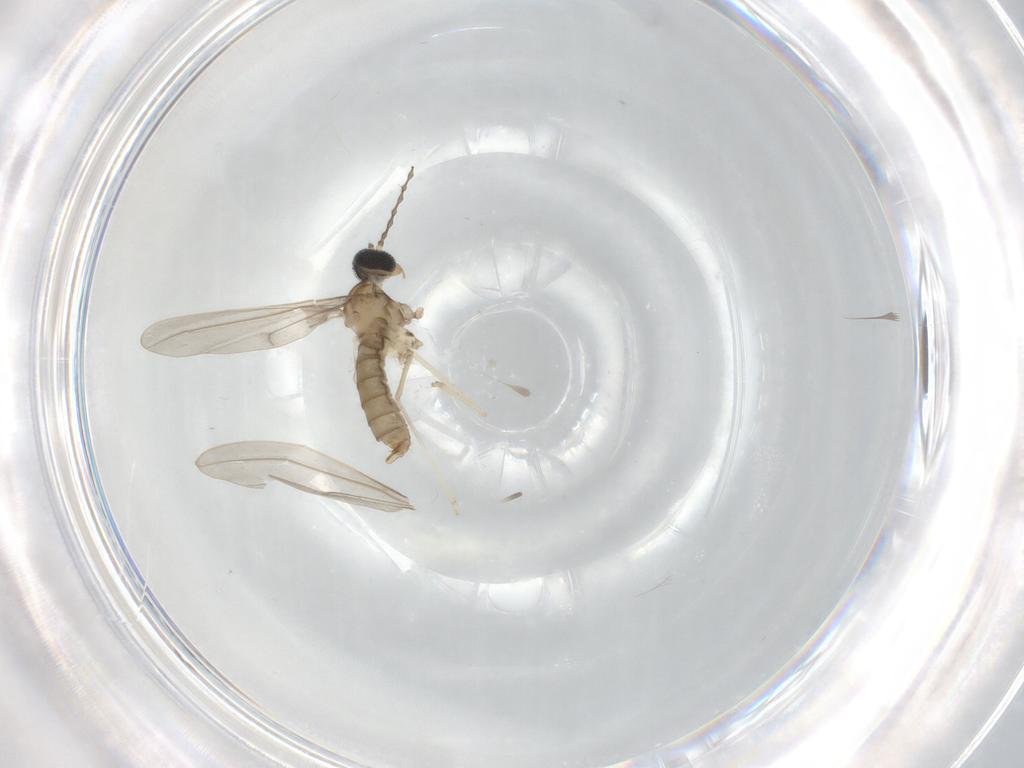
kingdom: Animalia
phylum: Arthropoda
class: Insecta
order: Diptera
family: Cecidomyiidae
